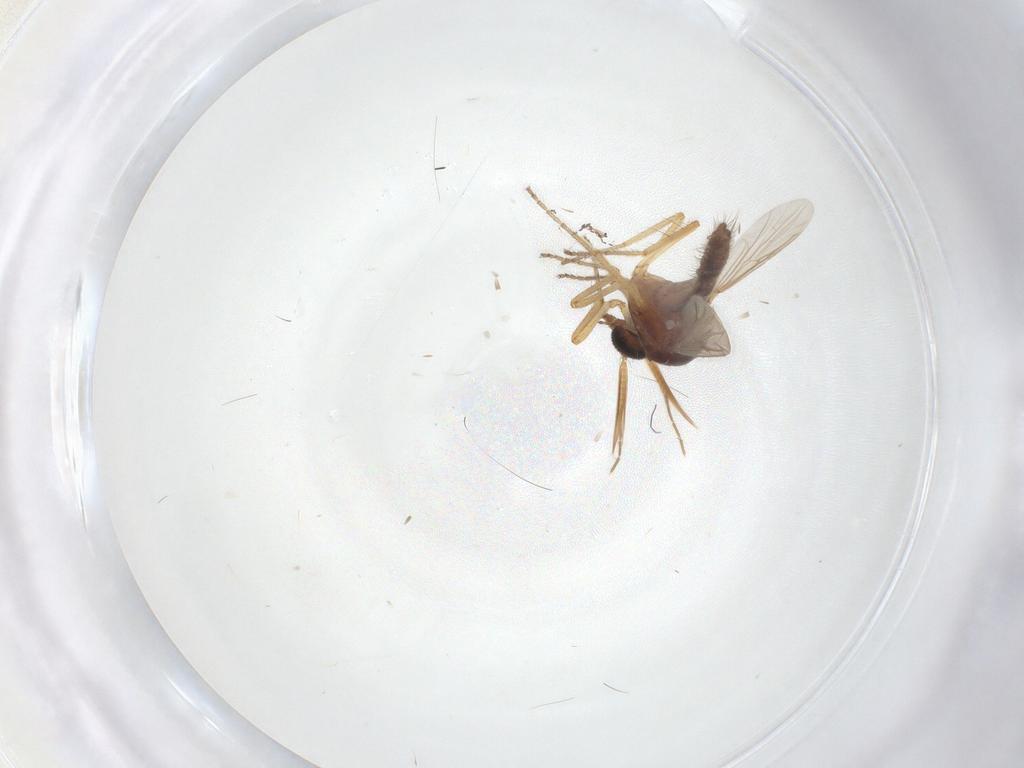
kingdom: Animalia
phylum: Arthropoda
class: Insecta
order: Diptera
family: Ceratopogonidae
